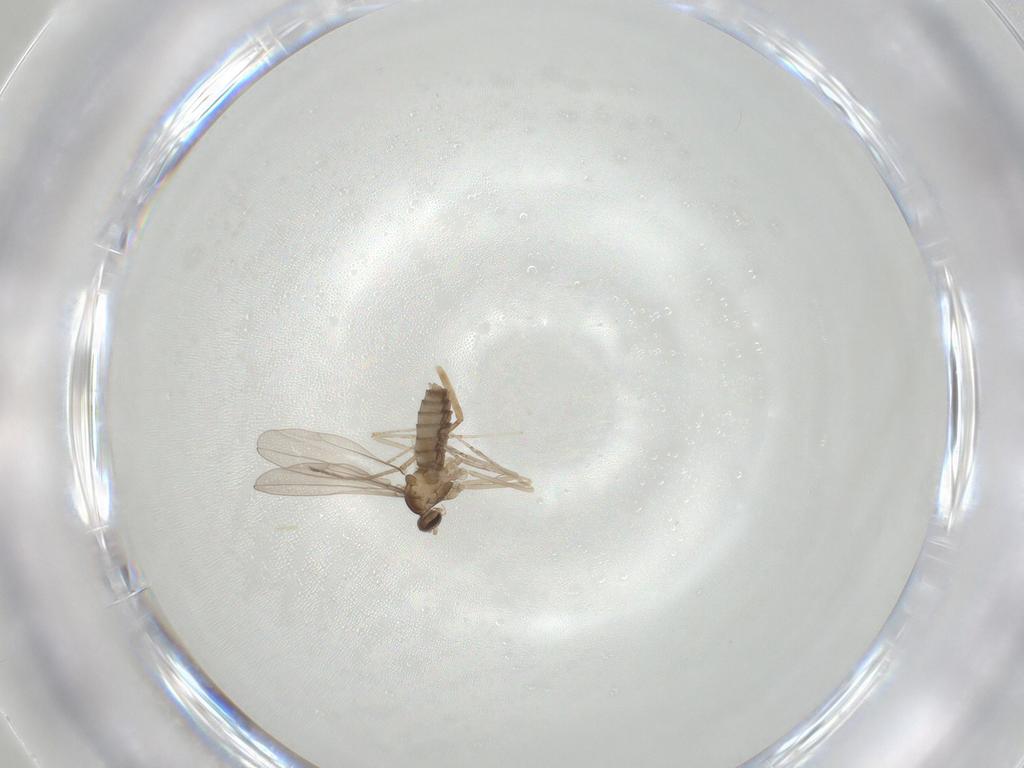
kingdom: Animalia
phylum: Arthropoda
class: Insecta
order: Diptera
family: Cecidomyiidae
